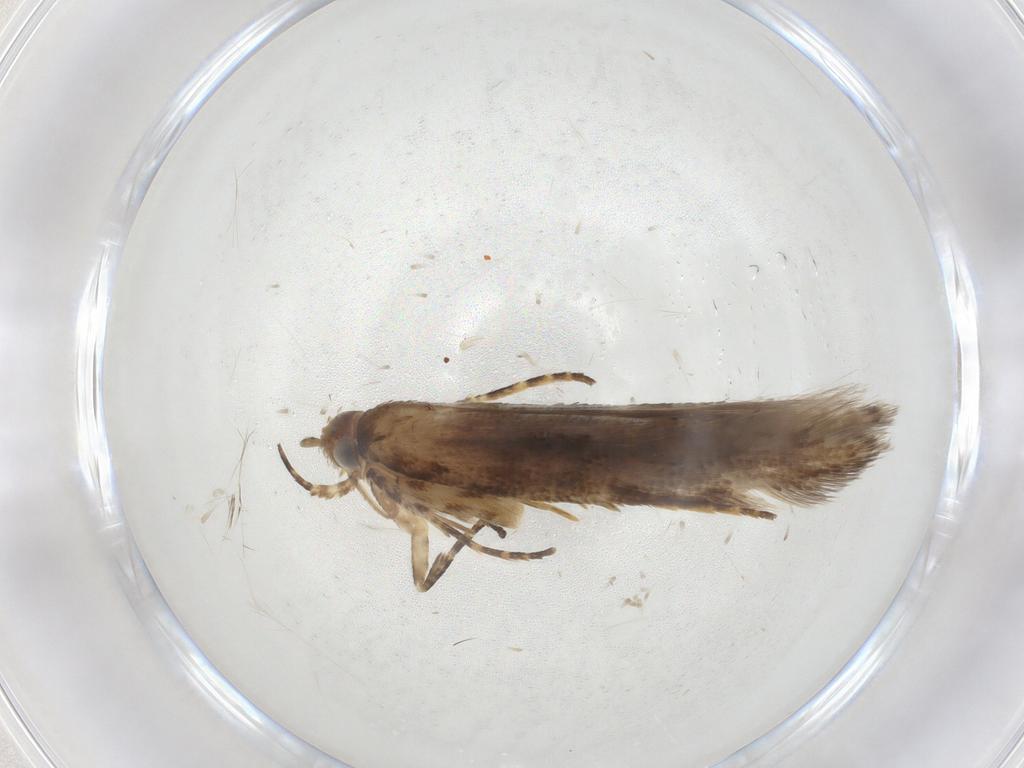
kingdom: Animalia
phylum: Arthropoda
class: Insecta
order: Lepidoptera
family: Gelechiidae
